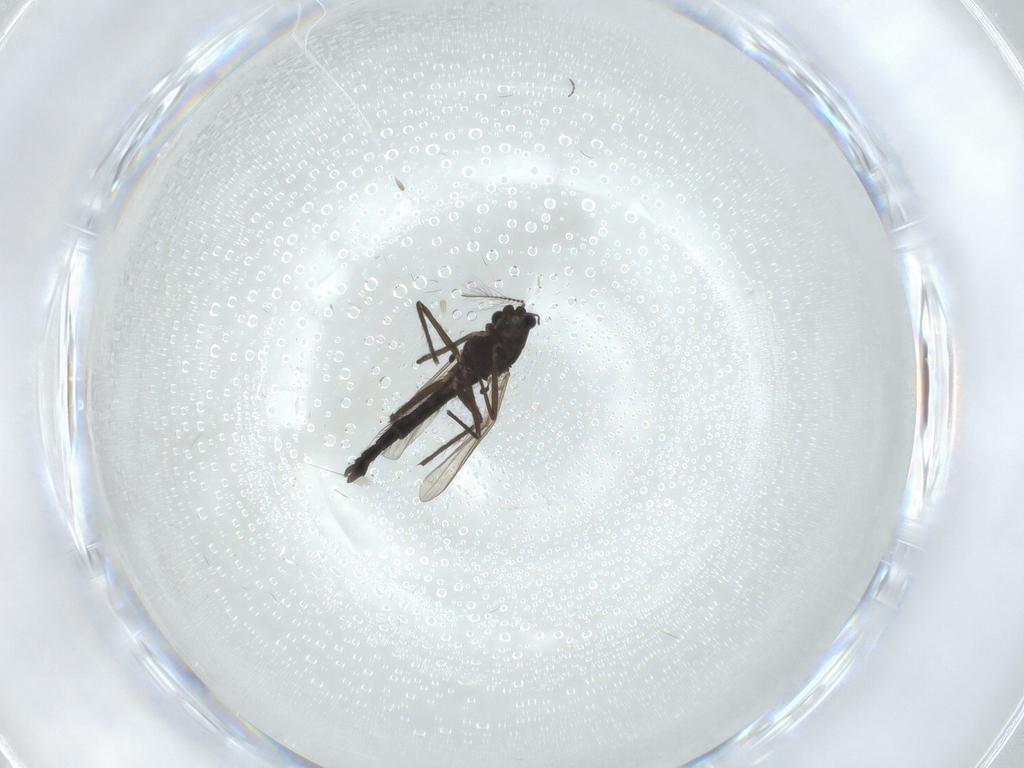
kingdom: Animalia
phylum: Arthropoda
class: Insecta
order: Diptera
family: Chironomidae
